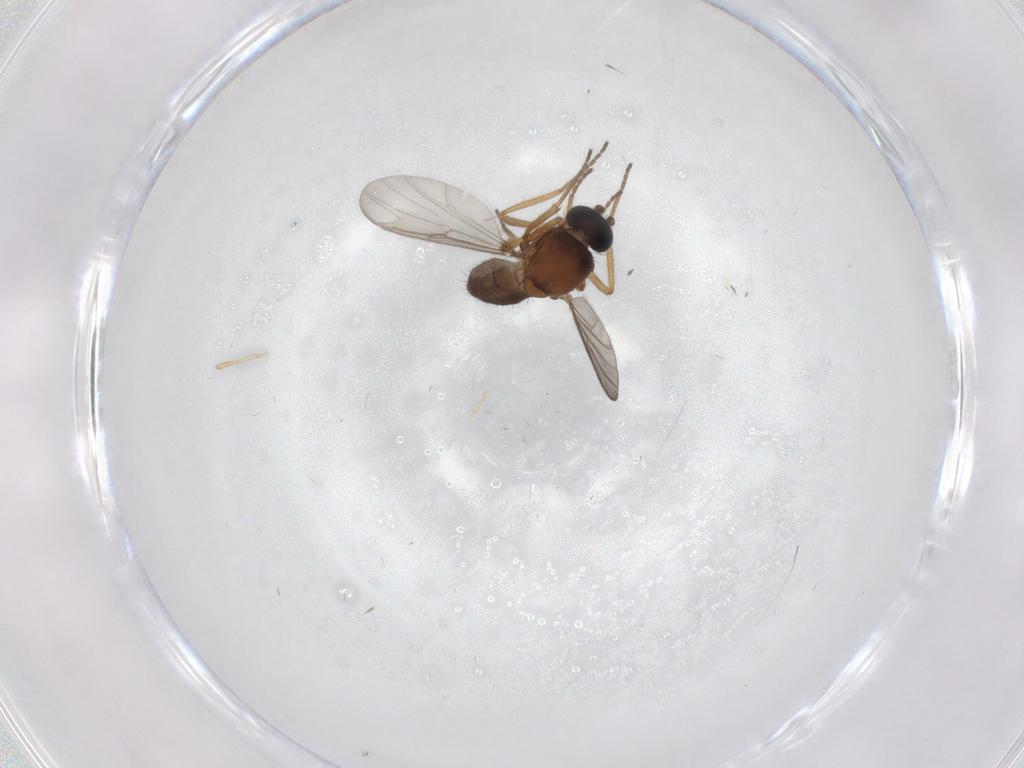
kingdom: Animalia
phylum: Arthropoda
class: Insecta
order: Diptera
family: Ceratopogonidae
